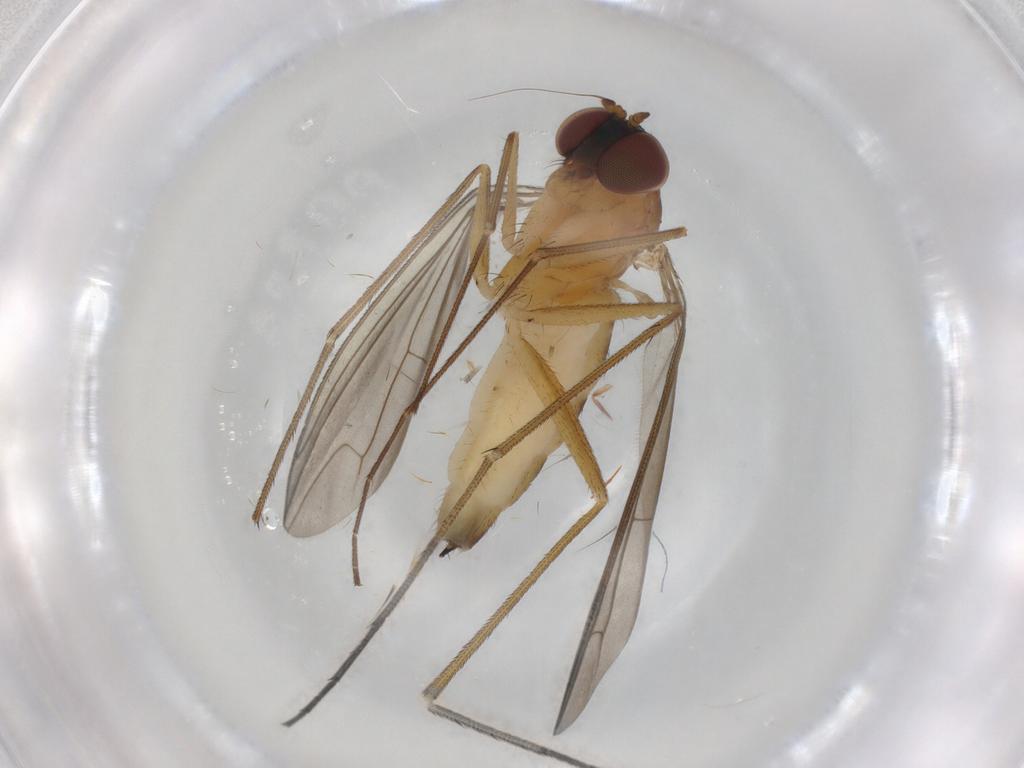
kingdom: Animalia
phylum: Arthropoda
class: Insecta
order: Diptera
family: Dolichopodidae
